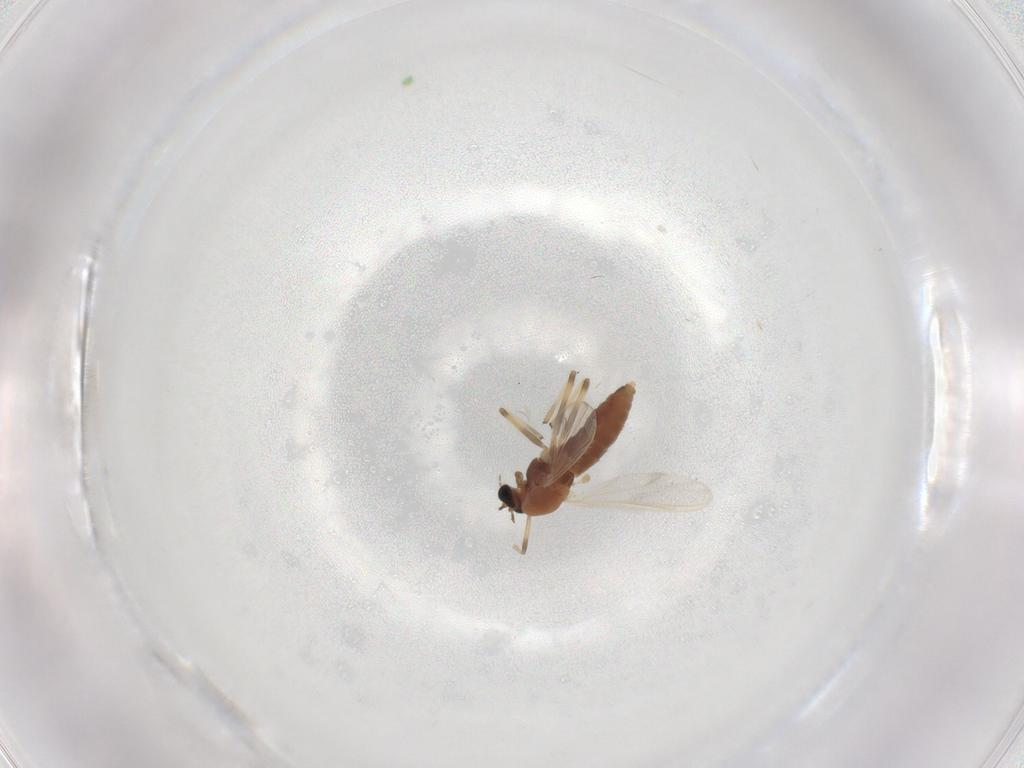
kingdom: Animalia
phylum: Arthropoda
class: Insecta
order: Diptera
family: Chironomidae
